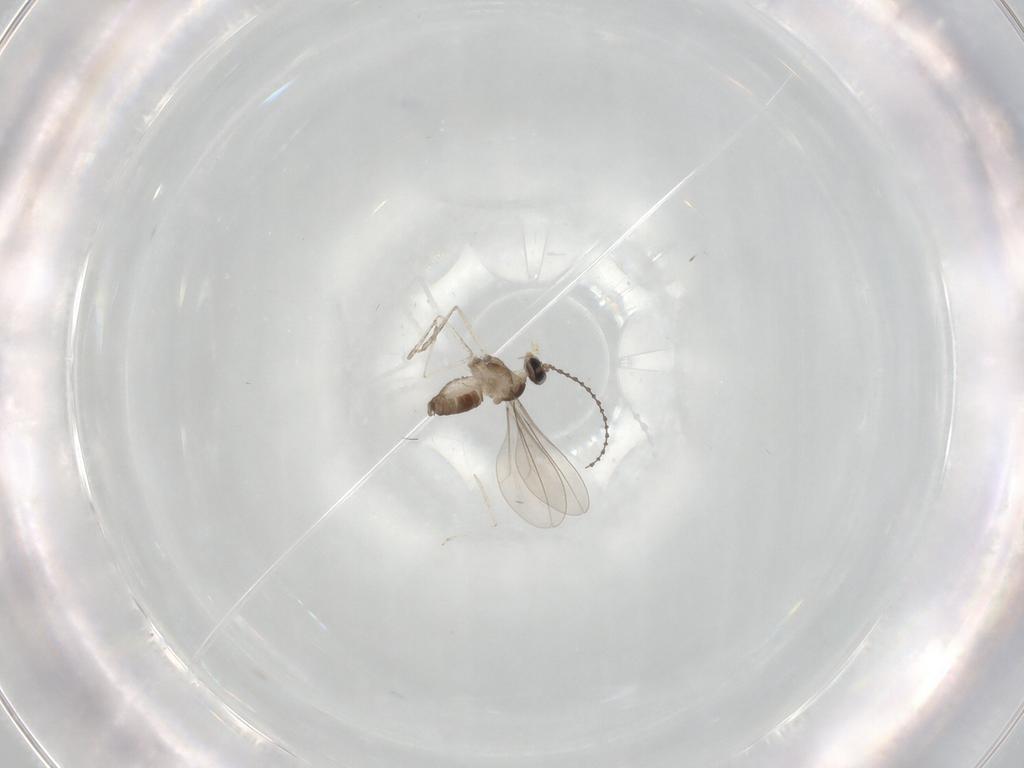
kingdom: Animalia
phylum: Arthropoda
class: Insecta
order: Diptera
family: Cecidomyiidae
